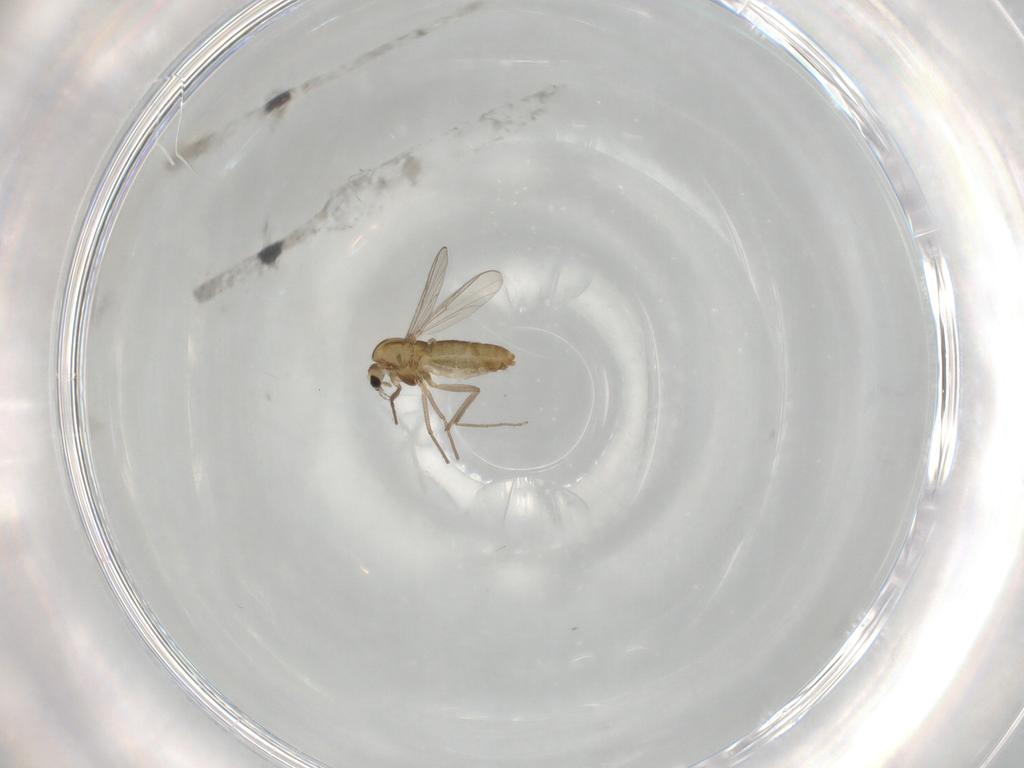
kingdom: Animalia
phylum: Arthropoda
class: Insecta
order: Diptera
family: Chironomidae
